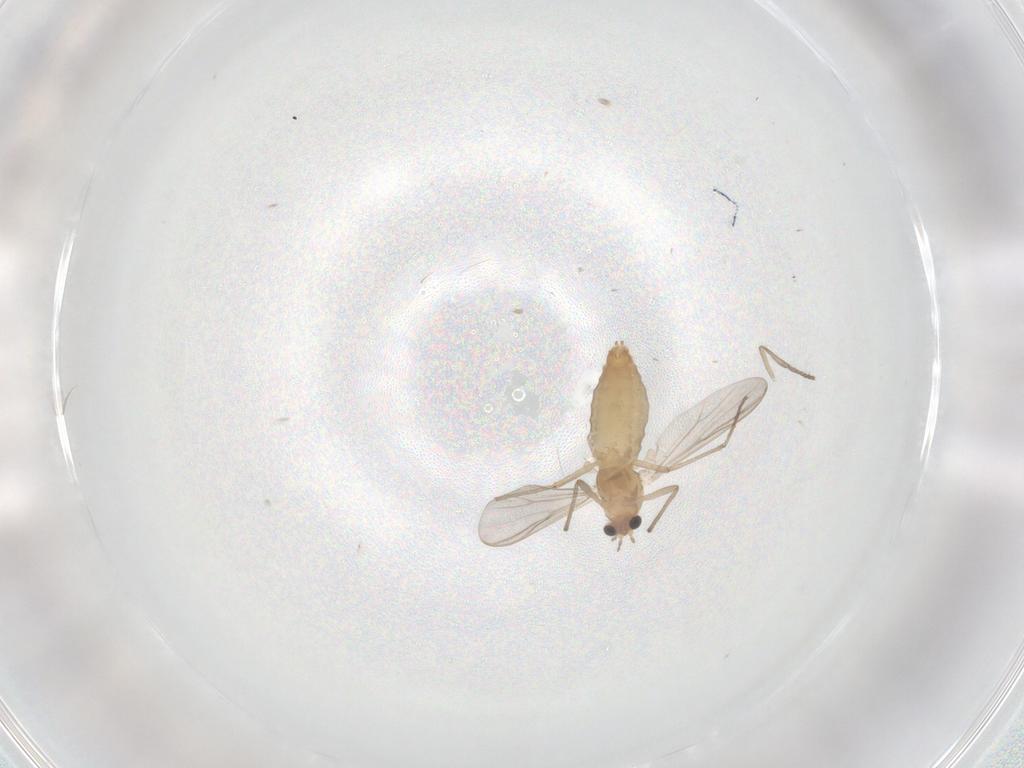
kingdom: Animalia
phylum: Arthropoda
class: Insecta
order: Diptera
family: Chironomidae
